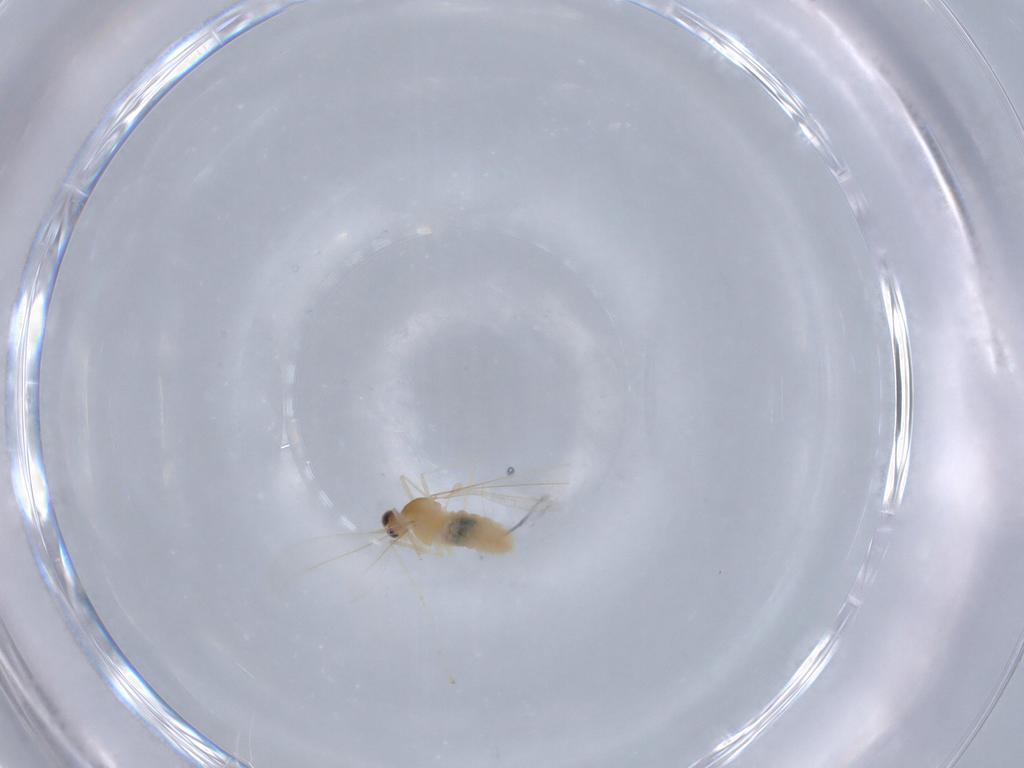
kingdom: Animalia
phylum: Arthropoda
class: Insecta
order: Diptera
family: Ceratopogonidae
